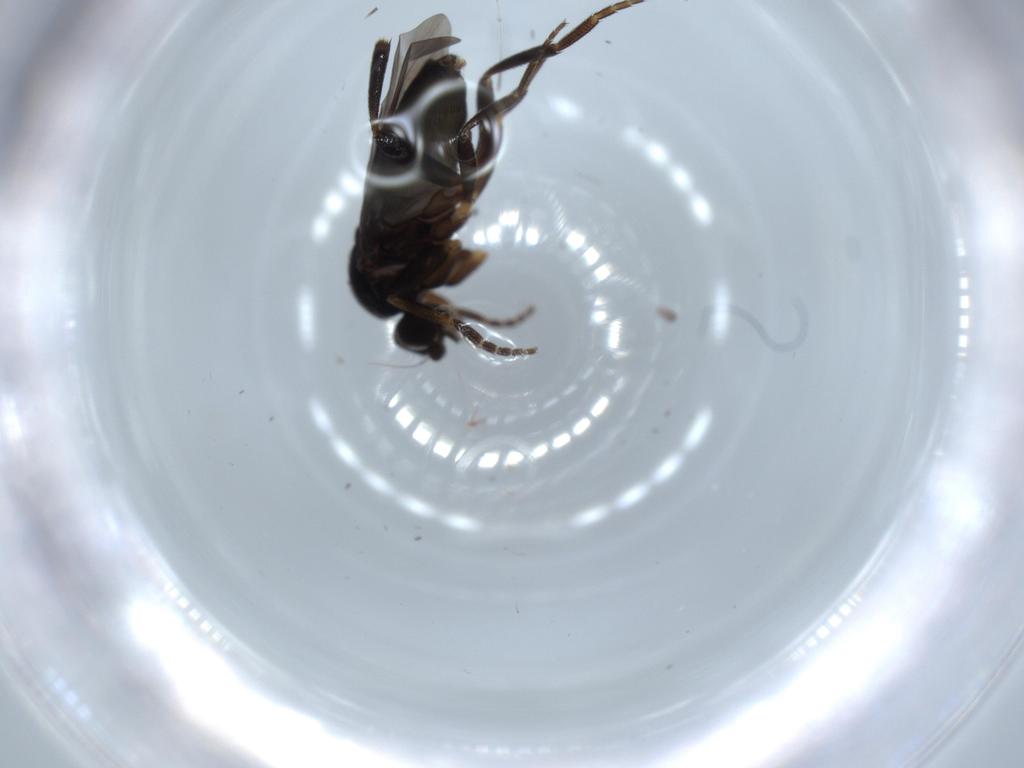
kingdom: Animalia
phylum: Arthropoda
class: Insecta
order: Diptera
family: Phoridae
